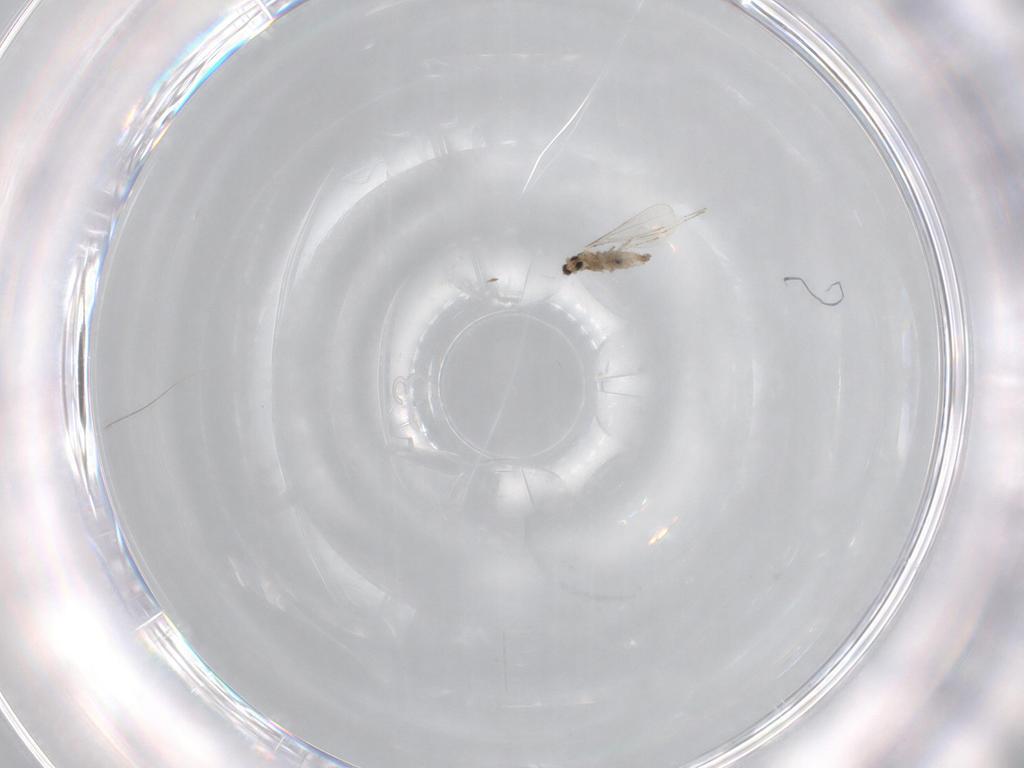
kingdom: Animalia
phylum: Arthropoda
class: Insecta
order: Diptera
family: Cecidomyiidae
